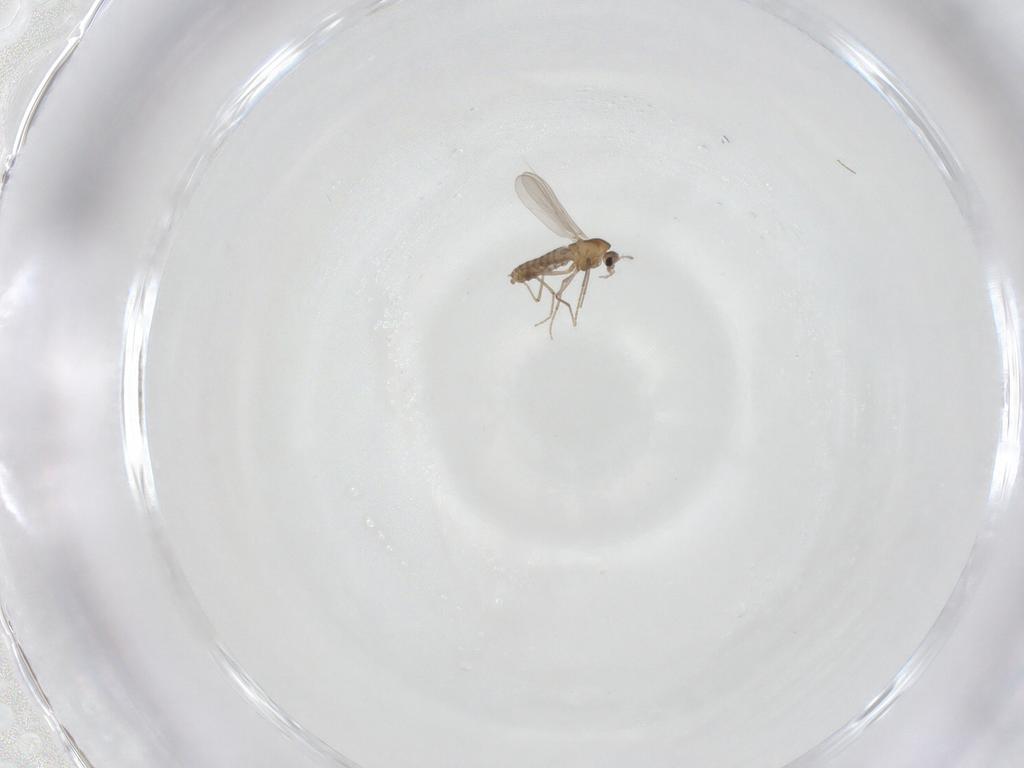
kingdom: Animalia
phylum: Arthropoda
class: Insecta
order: Diptera
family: Chironomidae
